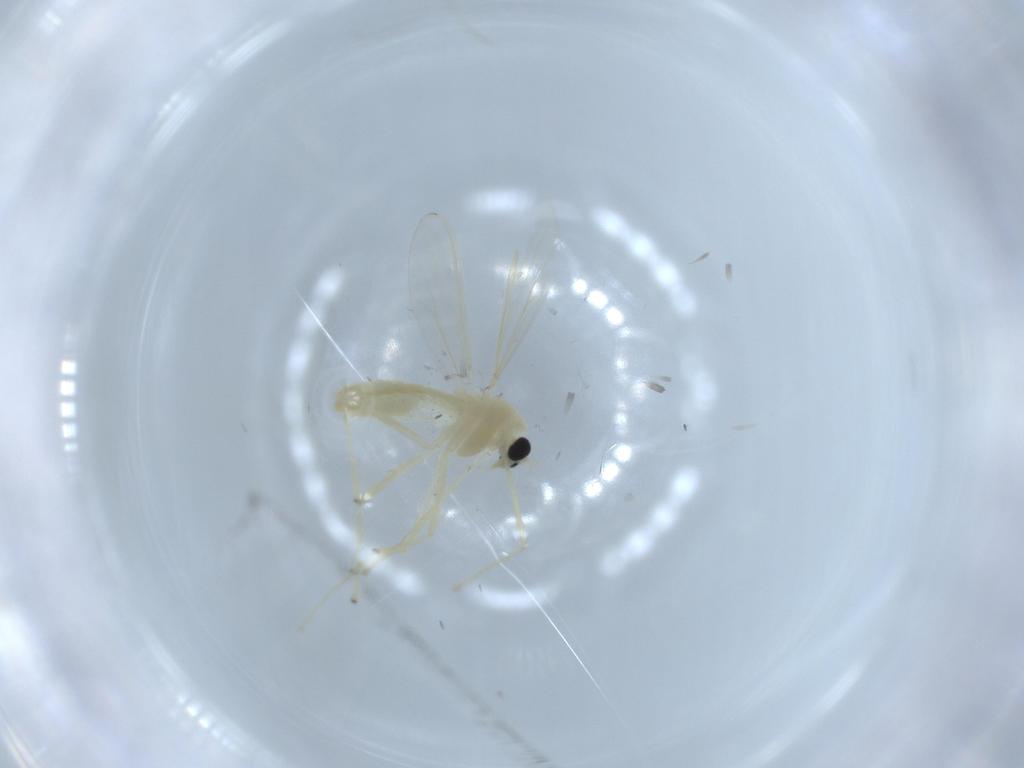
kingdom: Animalia
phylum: Arthropoda
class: Insecta
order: Diptera
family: Chironomidae
